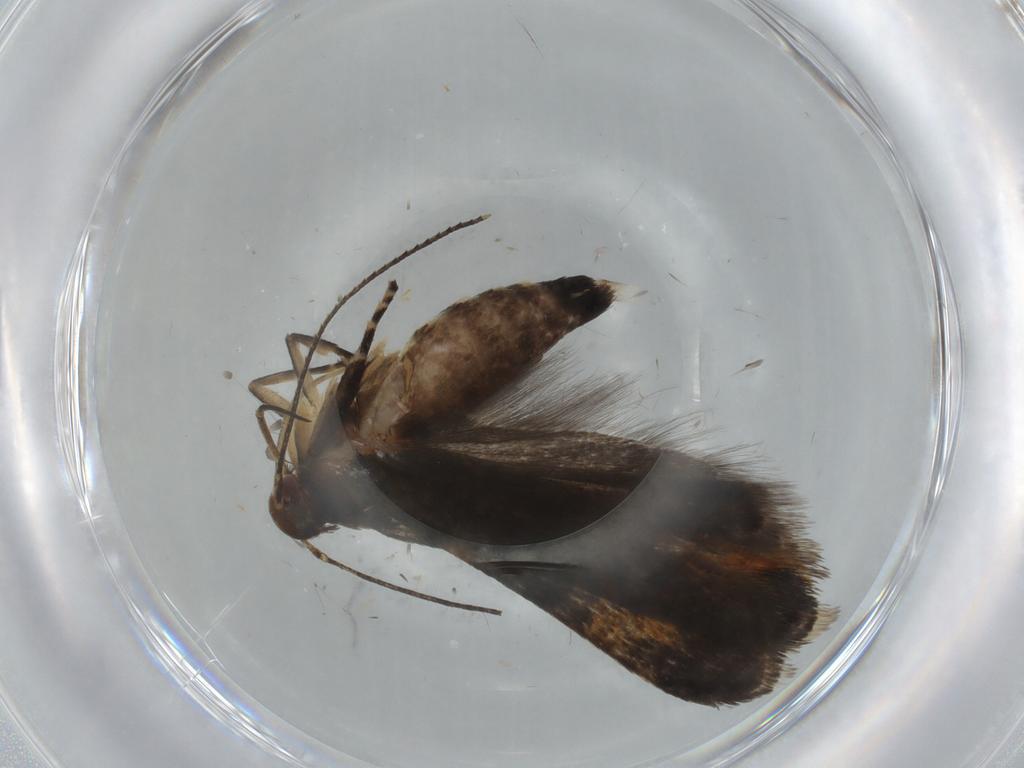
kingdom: Animalia
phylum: Arthropoda
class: Insecta
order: Lepidoptera
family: Gelechiidae
